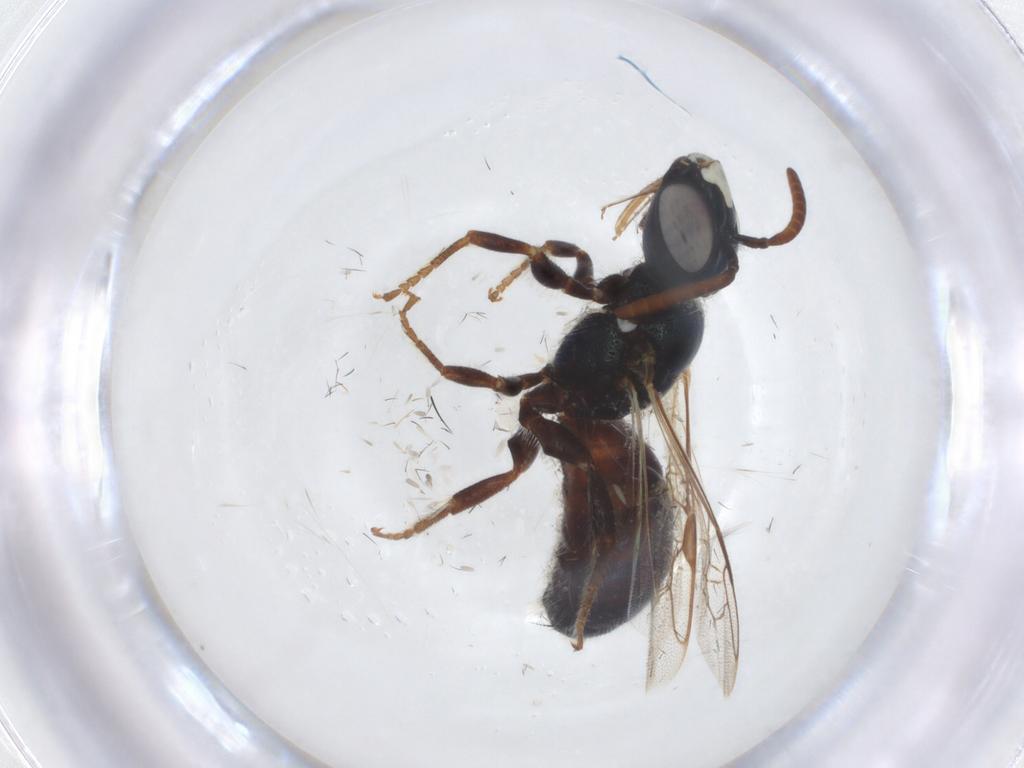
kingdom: Animalia
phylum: Arthropoda
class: Insecta
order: Hymenoptera
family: Apidae
